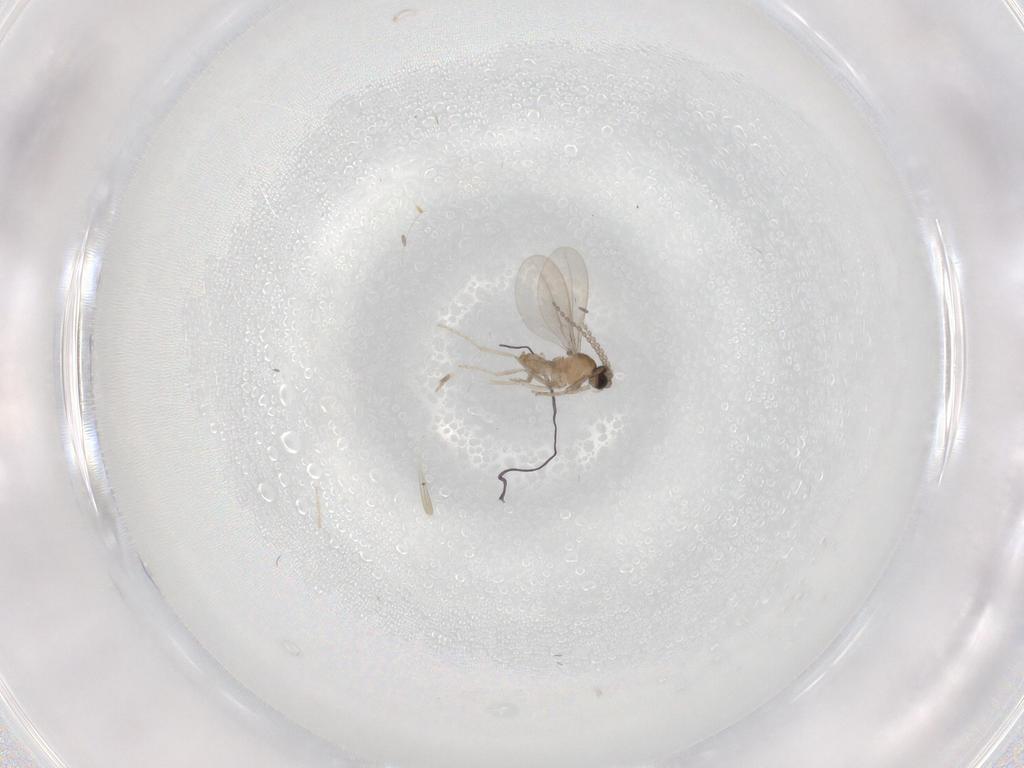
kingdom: Animalia
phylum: Arthropoda
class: Insecta
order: Diptera
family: Cecidomyiidae
